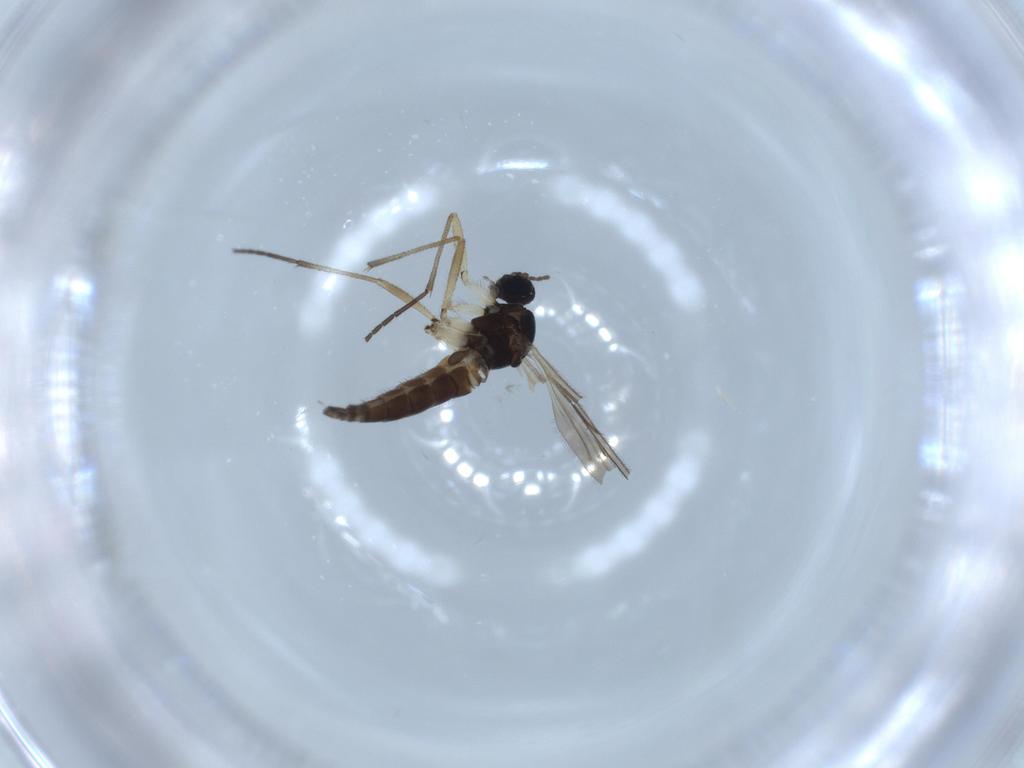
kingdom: Animalia
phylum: Arthropoda
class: Insecta
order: Diptera
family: Sciaridae
